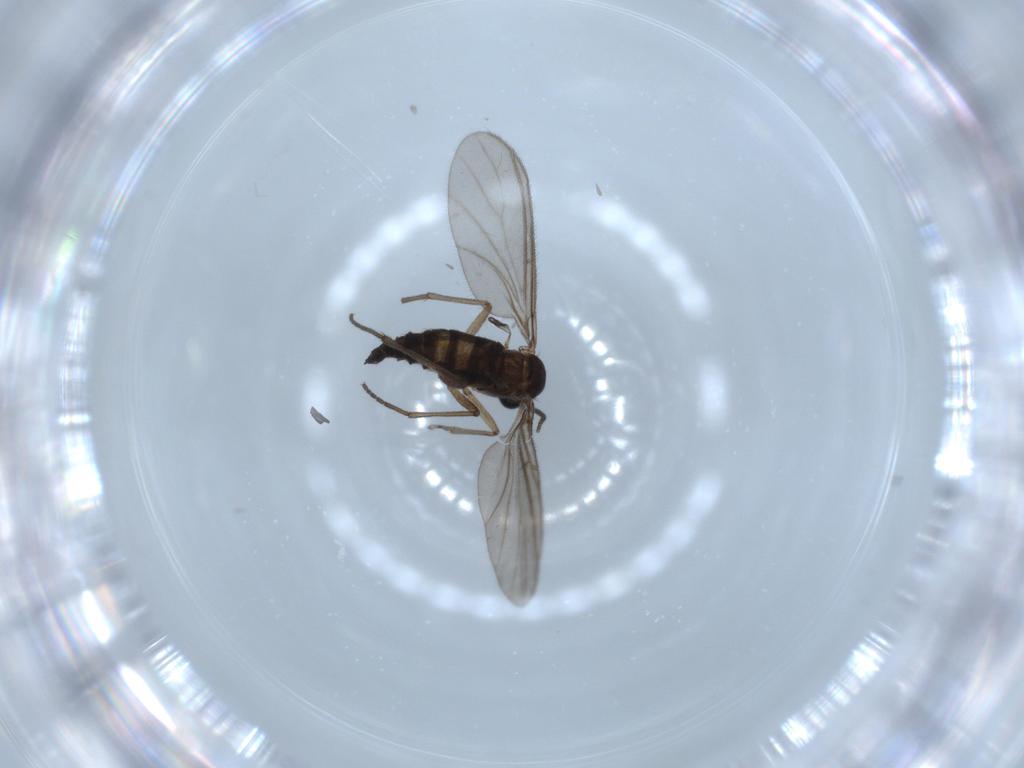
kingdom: Animalia
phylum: Arthropoda
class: Insecta
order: Diptera
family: Sciaridae
